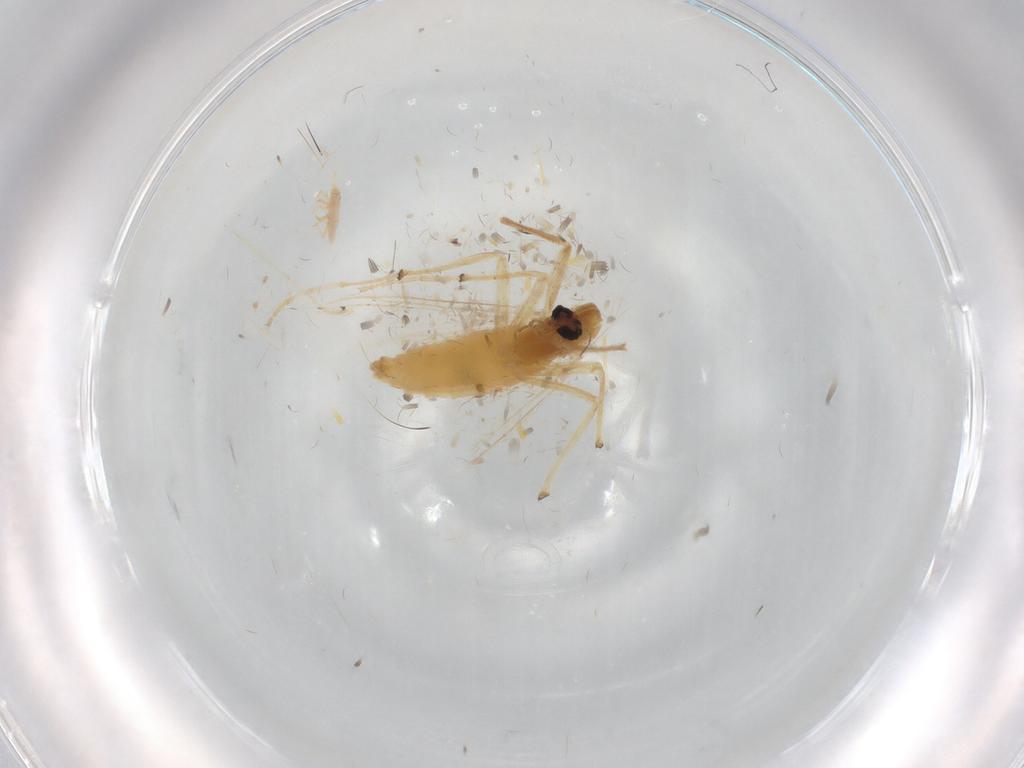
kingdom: Animalia
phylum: Arthropoda
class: Insecta
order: Diptera
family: Chironomidae
